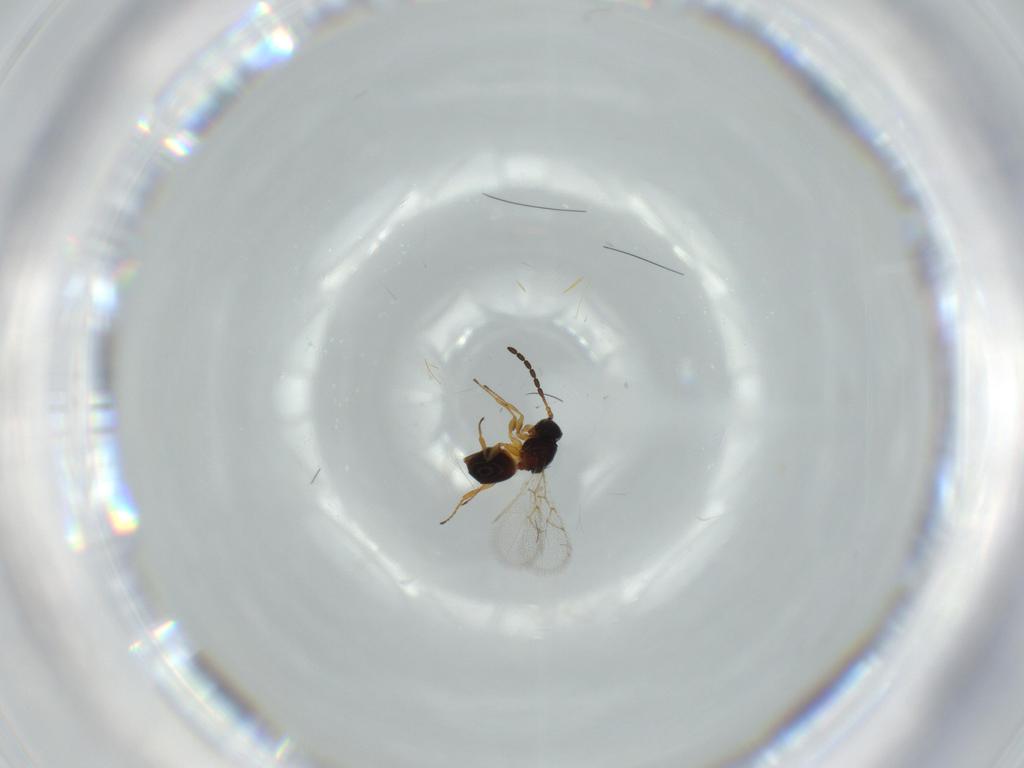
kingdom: Animalia
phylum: Arthropoda
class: Insecta
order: Hymenoptera
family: Figitidae
